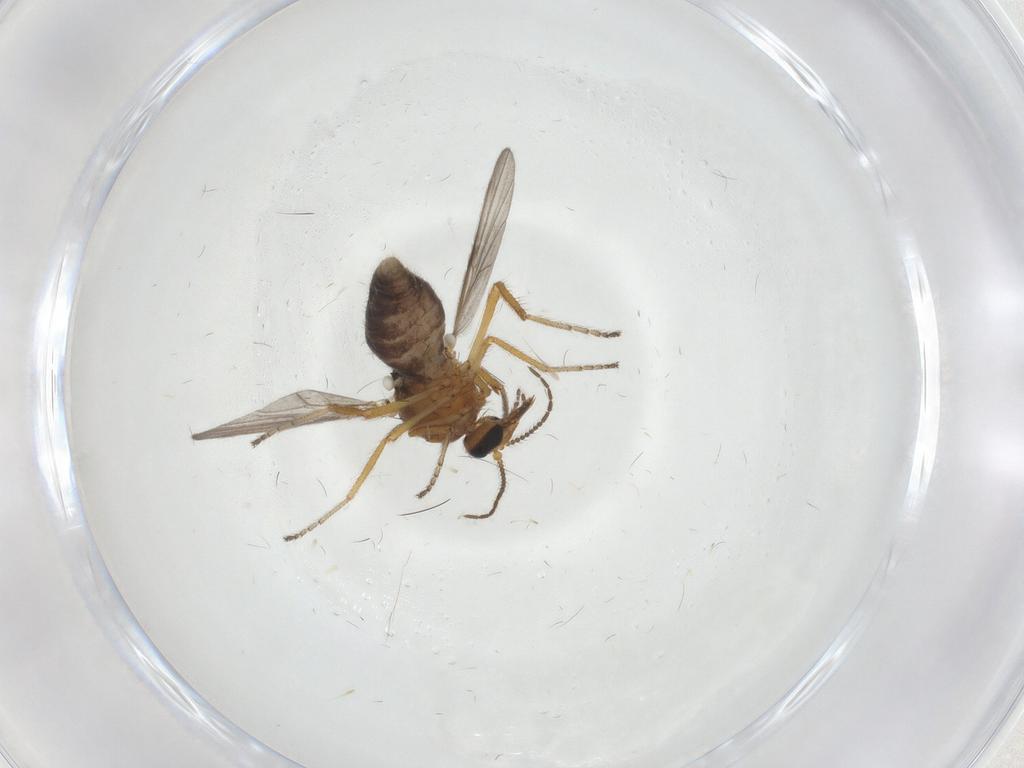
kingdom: Animalia
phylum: Arthropoda
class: Insecta
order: Diptera
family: Ceratopogonidae
